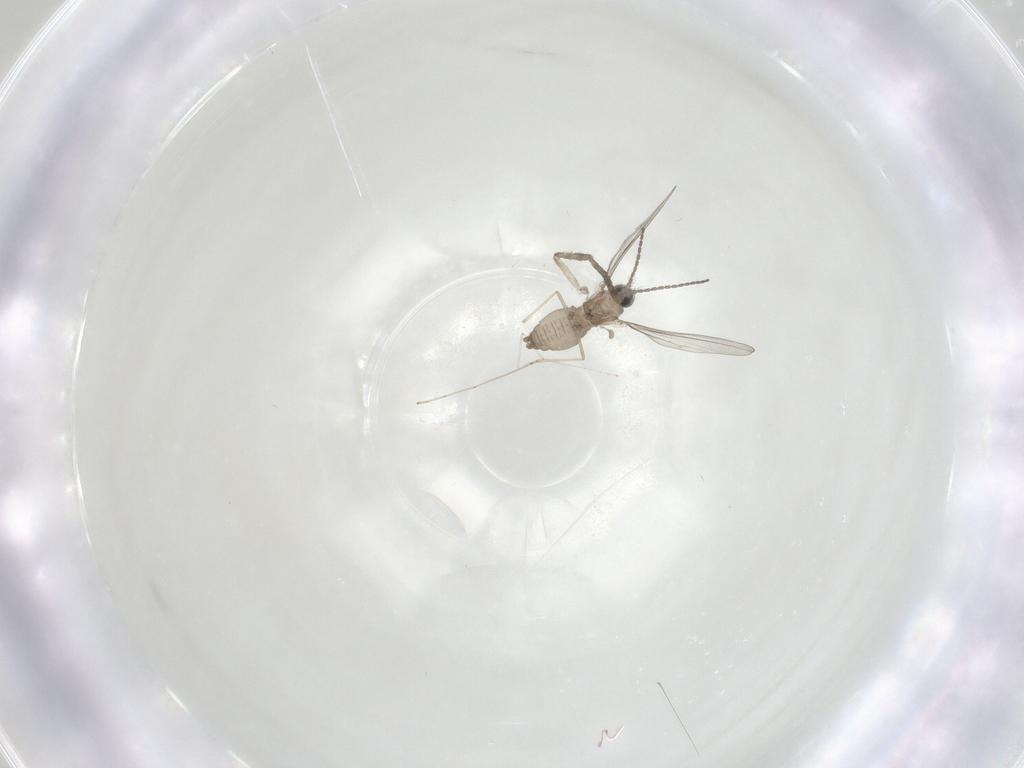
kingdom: Animalia
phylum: Arthropoda
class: Insecta
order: Diptera
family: Cecidomyiidae
